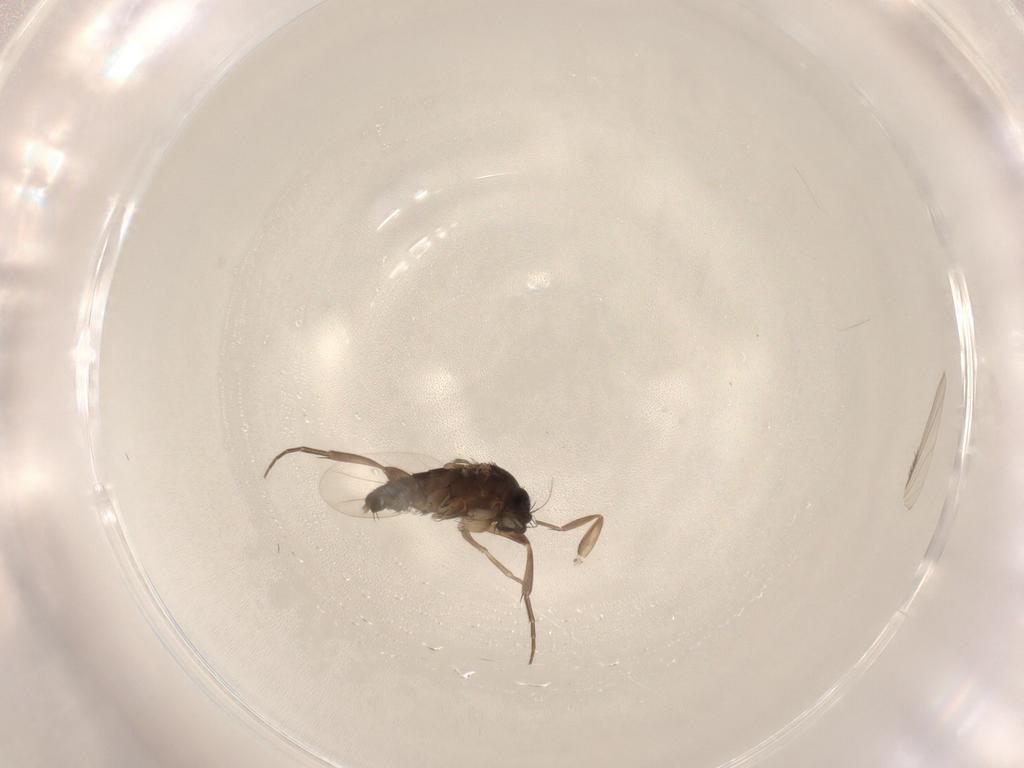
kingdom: Animalia
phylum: Arthropoda
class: Insecta
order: Diptera
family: Phoridae
